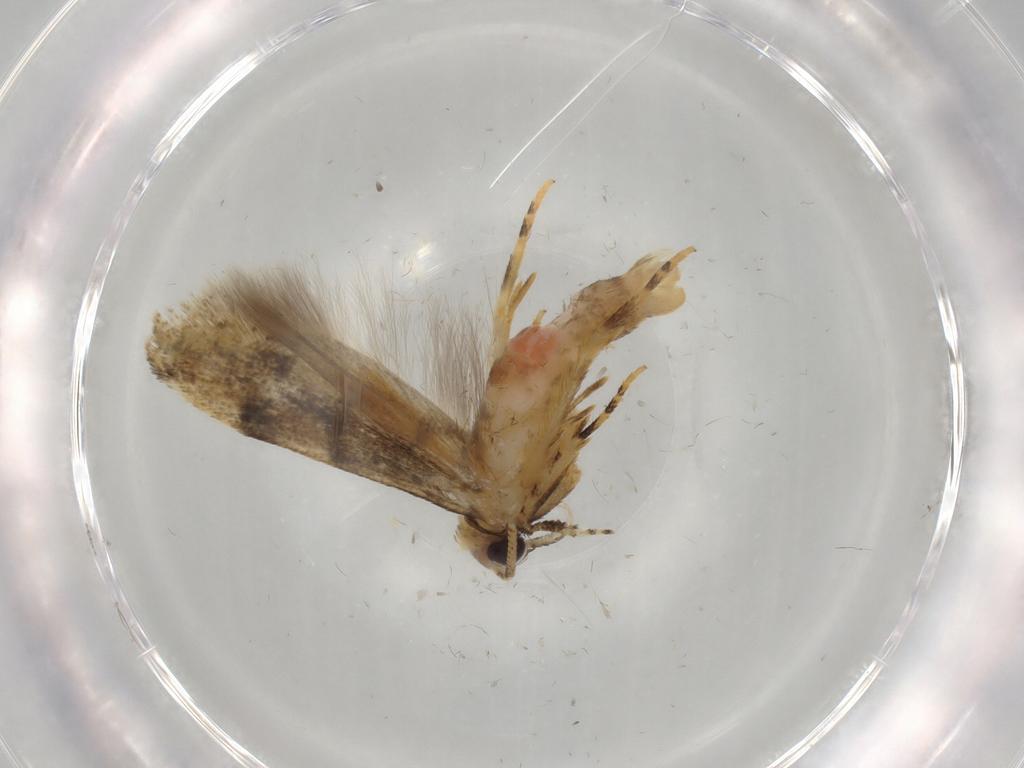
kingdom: Animalia
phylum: Arthropoda
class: Insecta
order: Lepidoptera
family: Gelechiidae
